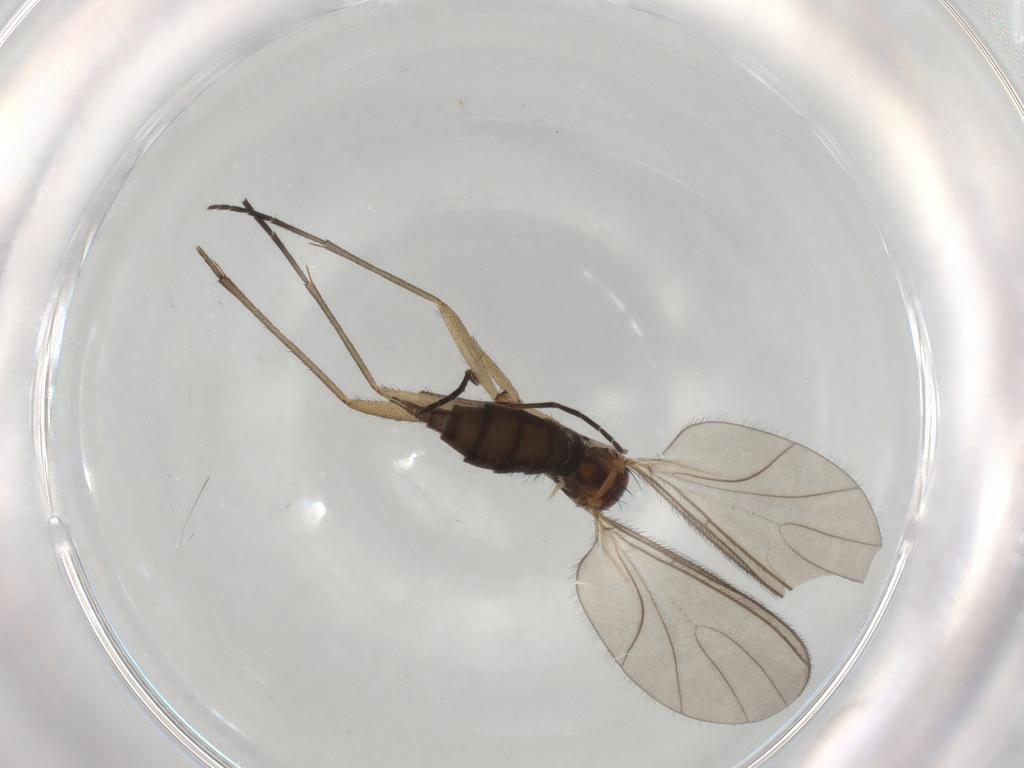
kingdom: Animalia
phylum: Arthropoda
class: Insecta
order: Diptera
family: Sciaridae
